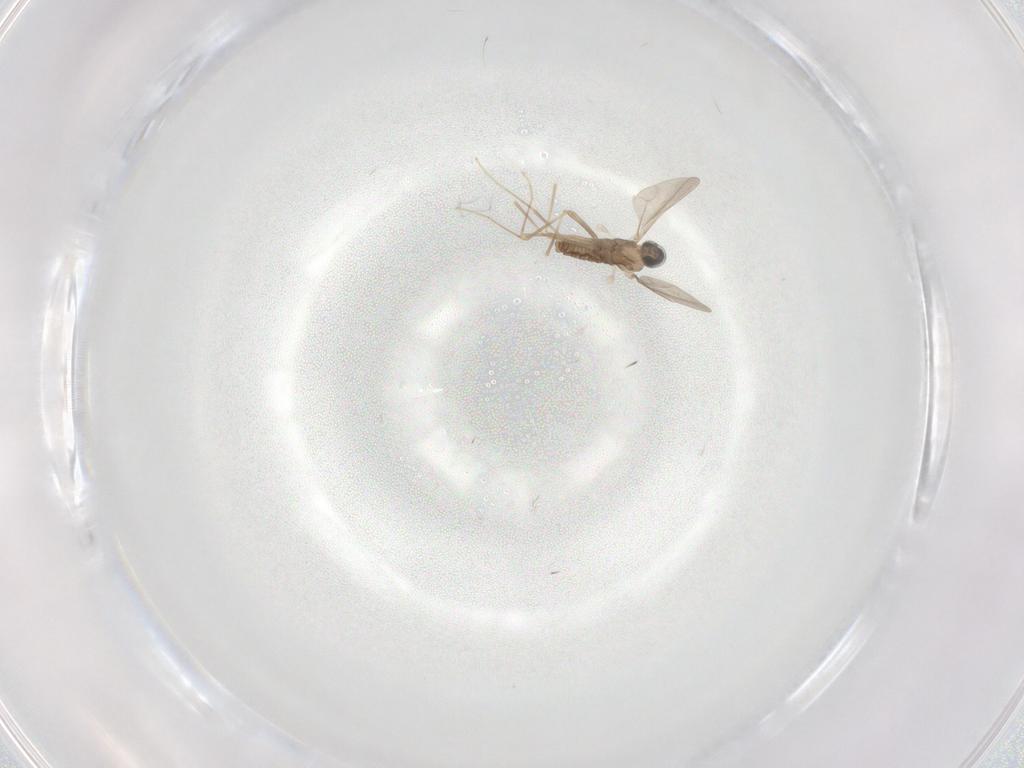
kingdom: Animalia
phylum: Arthropoda
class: Insecta
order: Diptera
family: Cecidomyiidae
